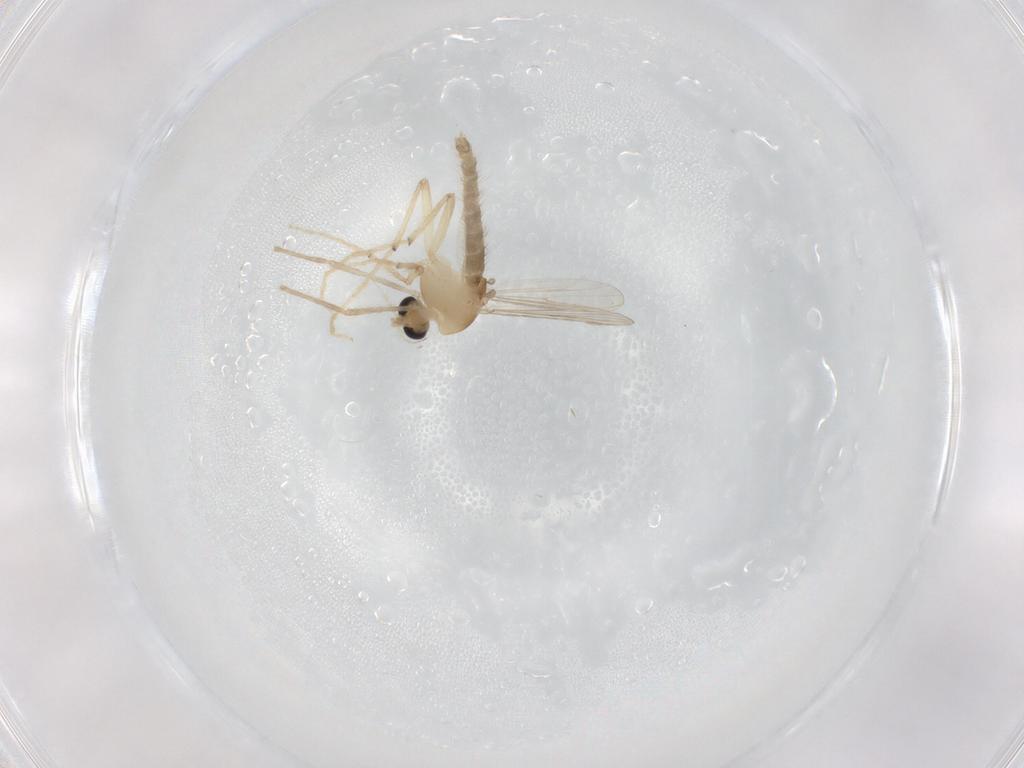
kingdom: Animalia
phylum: Arthropoda
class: Insecta
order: Diptera
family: Chironomidae
